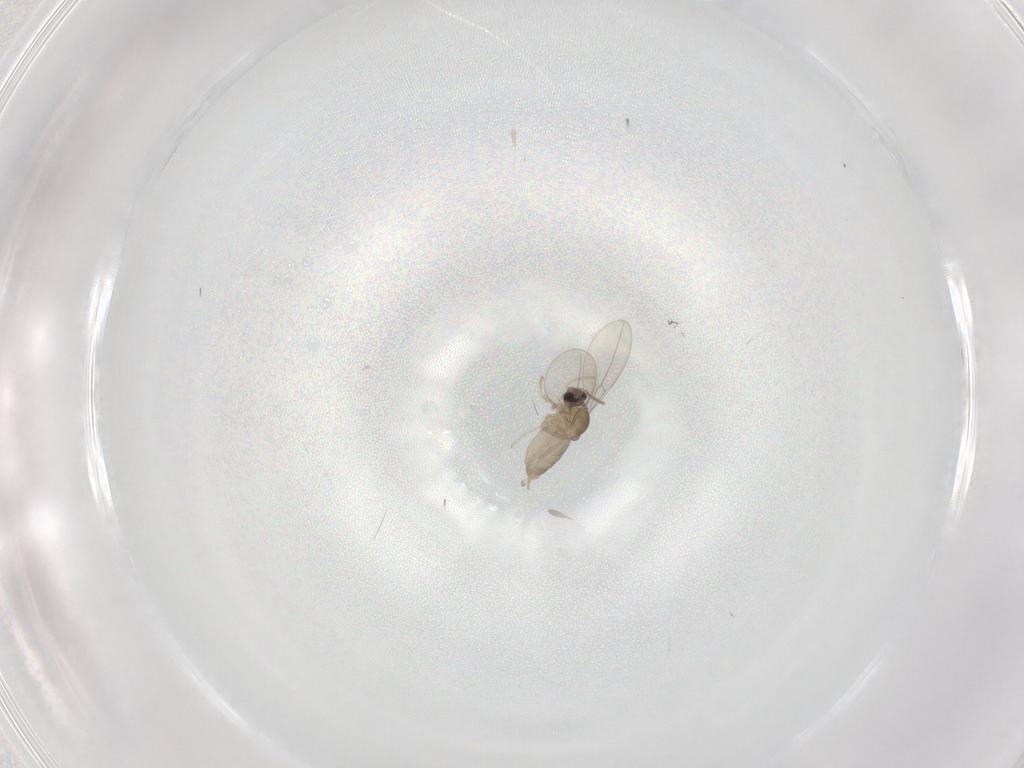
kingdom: Animalia
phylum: Arthropoda
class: Insecta
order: Diptera
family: Cecidomyiidae
